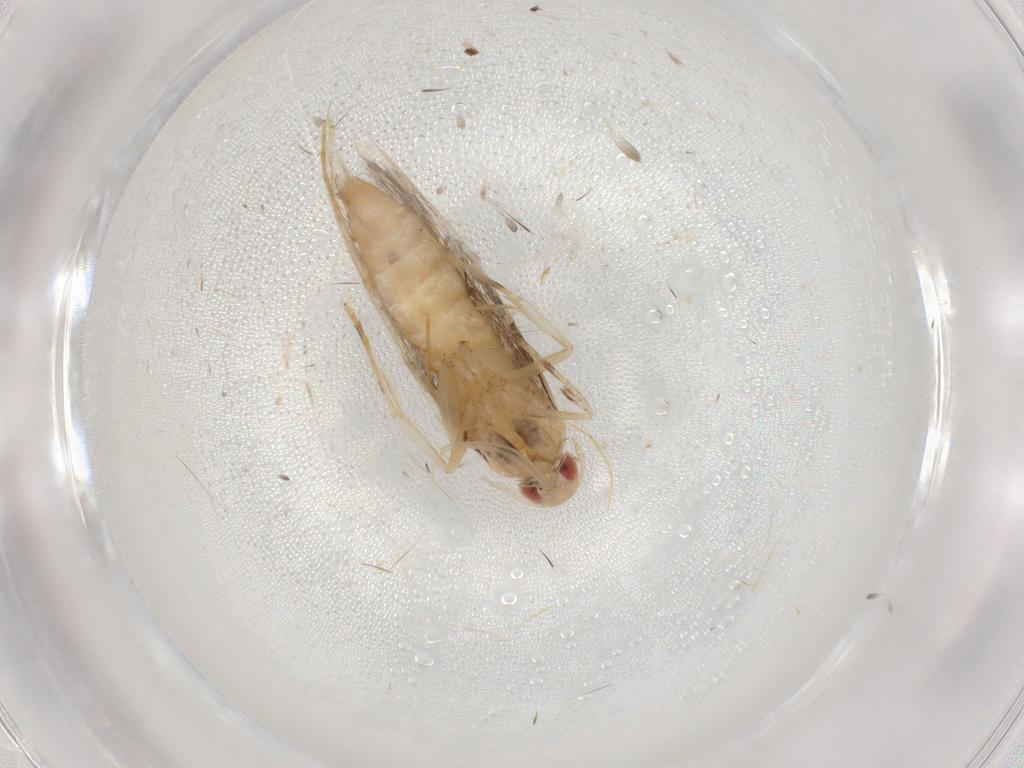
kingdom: Animalia
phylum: Arthropoda
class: Insecta
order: Lepidoptera
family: Cosmopterigidae
